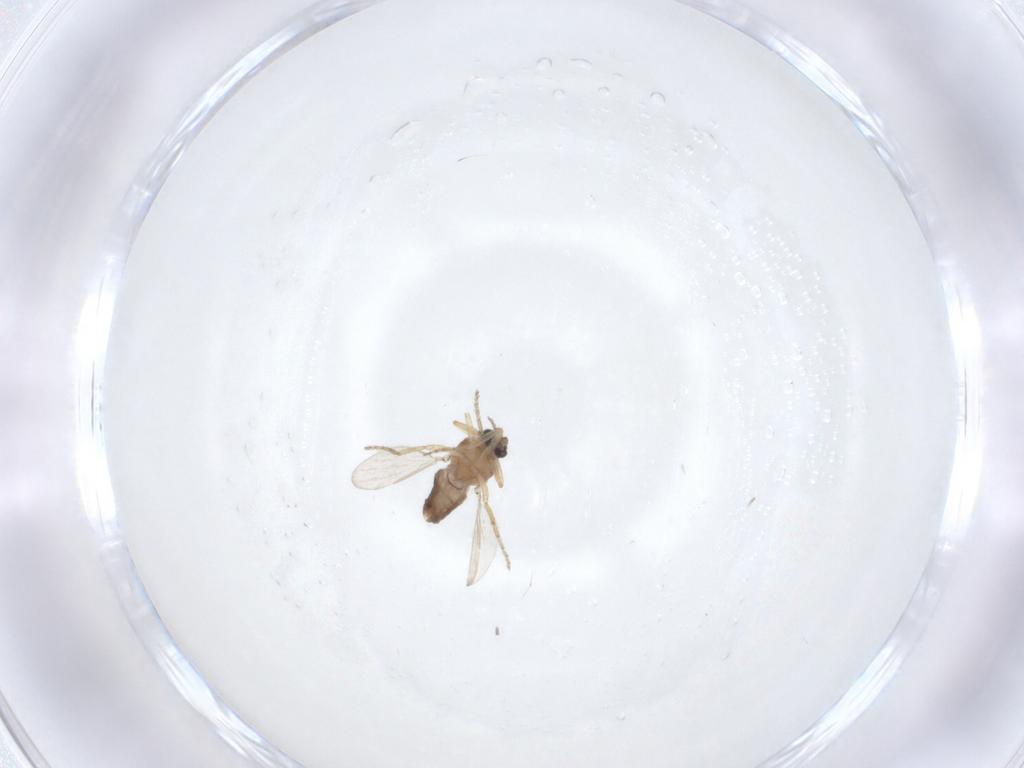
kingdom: Animalia
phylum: Arthropoda
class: Insecta
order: Diptera
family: Ceratopogonidae
